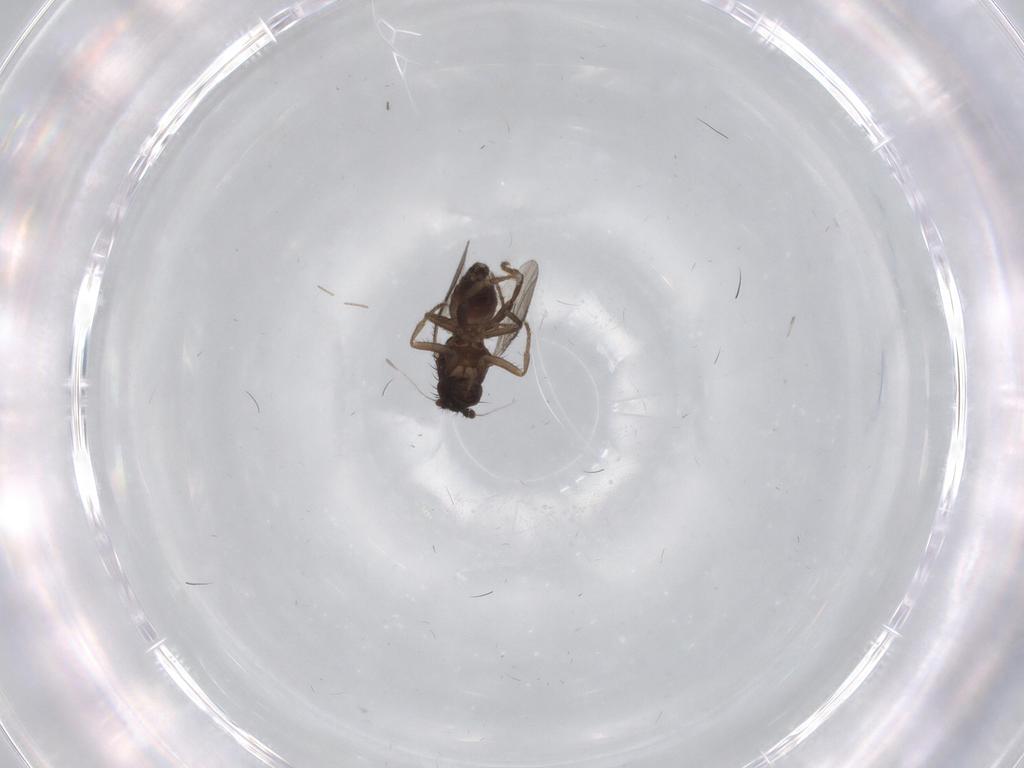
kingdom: Animalia
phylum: Arthropoda
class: Insecta
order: Diptera
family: Sphaeroceridae
